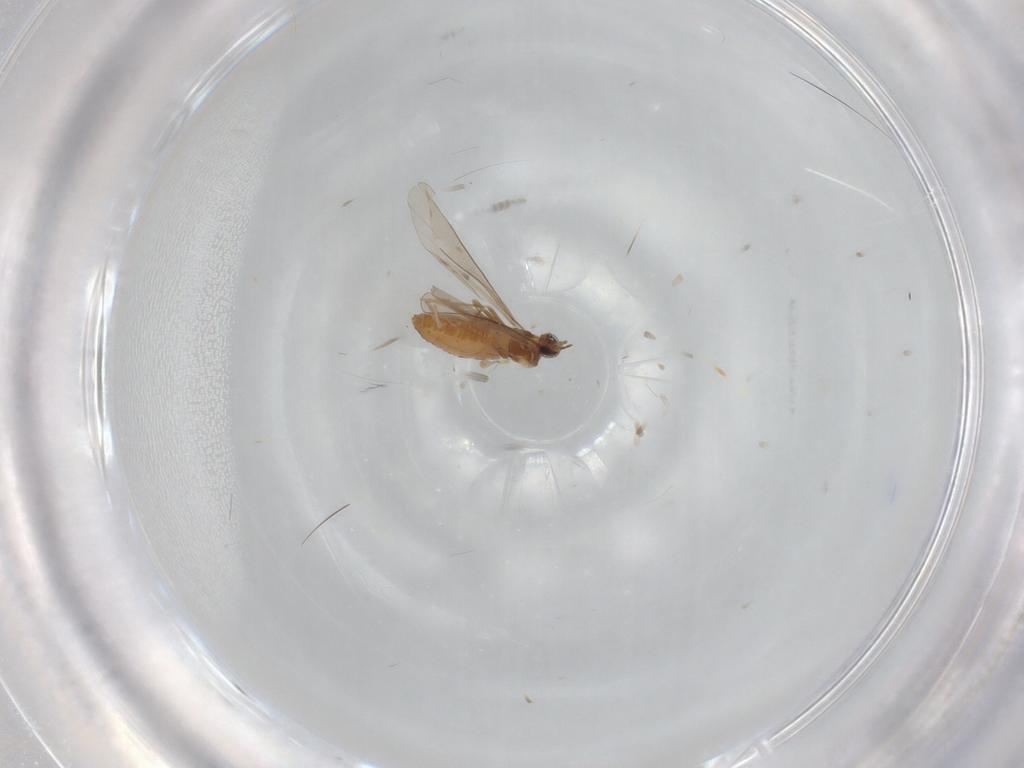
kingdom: Animalia
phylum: Arthropoda
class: Insecta
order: Diptera
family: Cecidomyiidae
